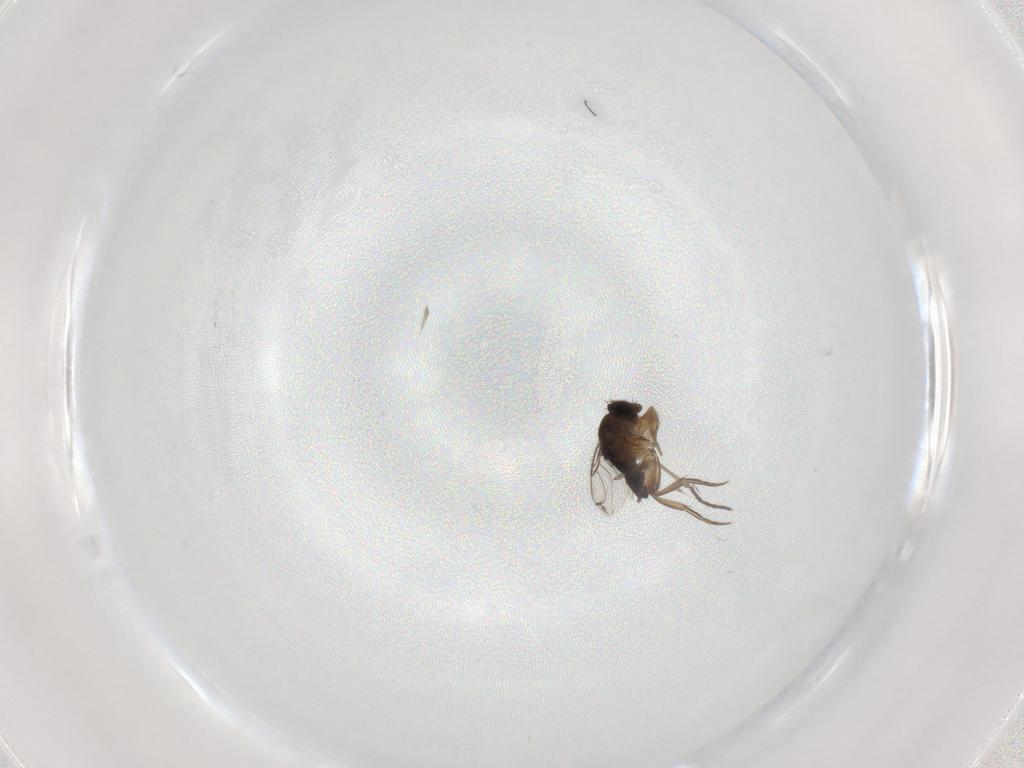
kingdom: Animalia
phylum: Arthropoda
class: Insecta
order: Diptera
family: Sciaridae
